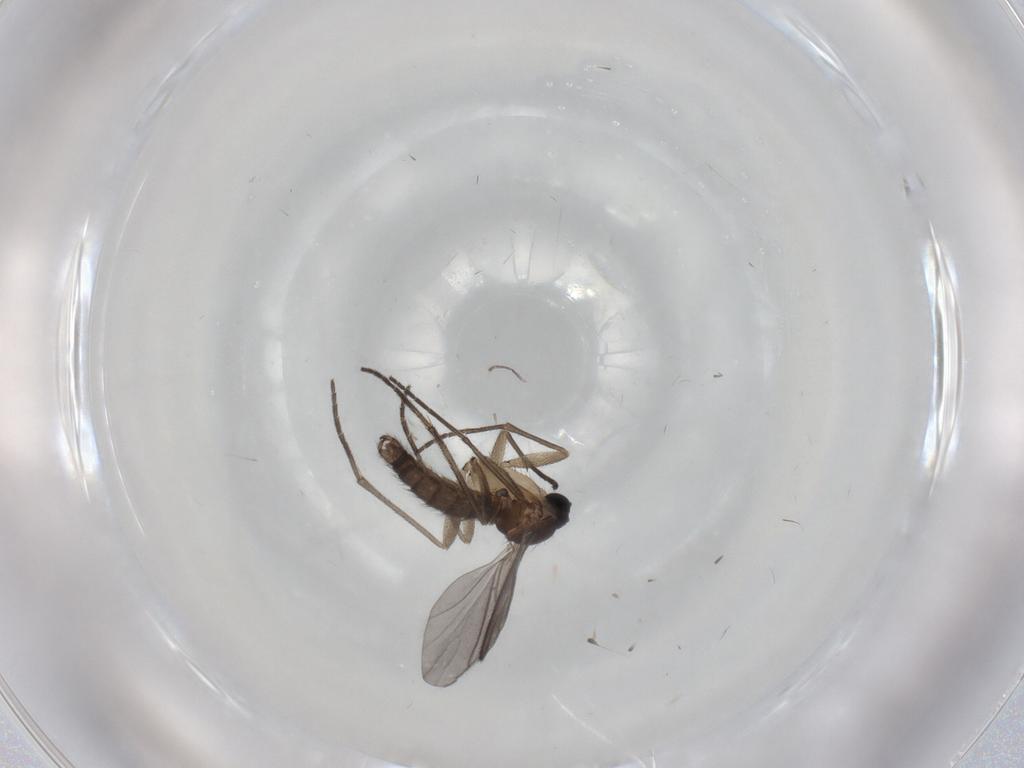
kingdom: Animalia
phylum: Arthropoda
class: Insecta
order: Diptera
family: Sciaridae
